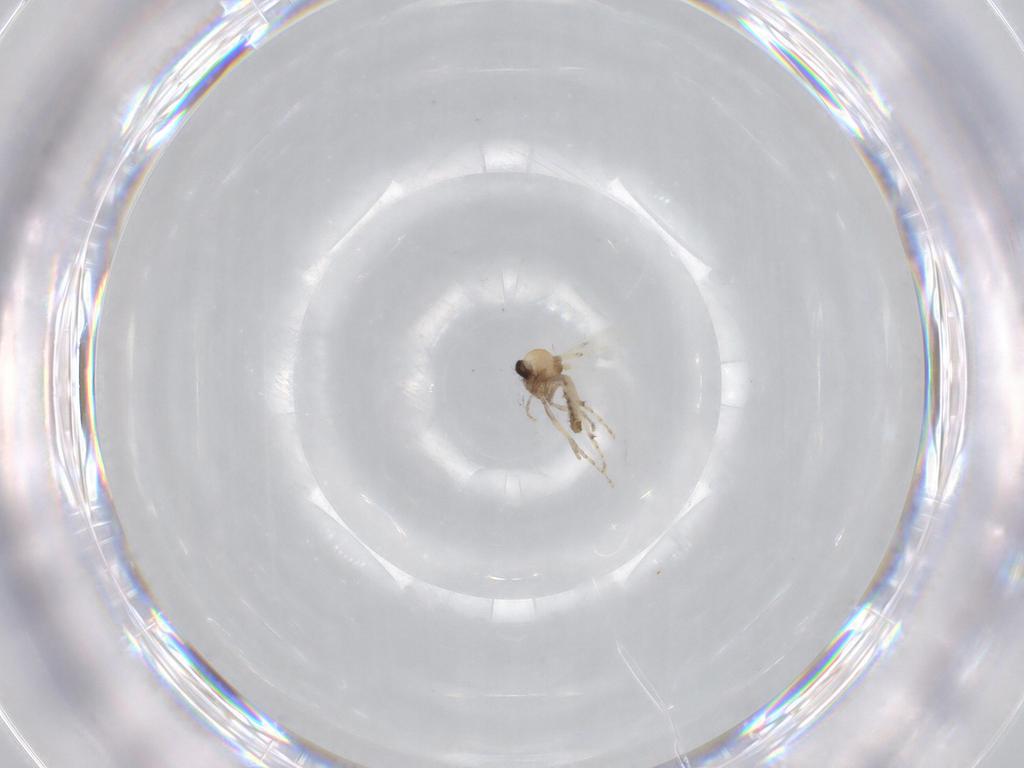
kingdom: Animalia
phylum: Arthropoda
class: Insecta
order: Diptera
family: Ceratopogonidae
